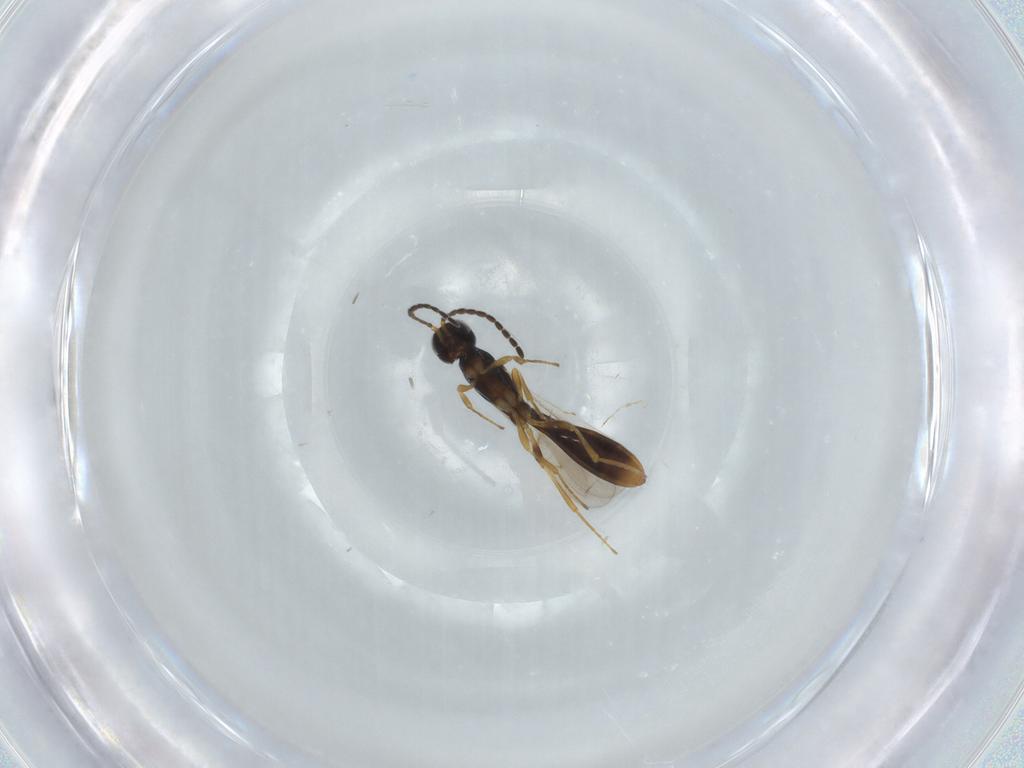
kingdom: Animalia
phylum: Arthropoda
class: Insecta
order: Hymenoptera
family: Scelionidae
